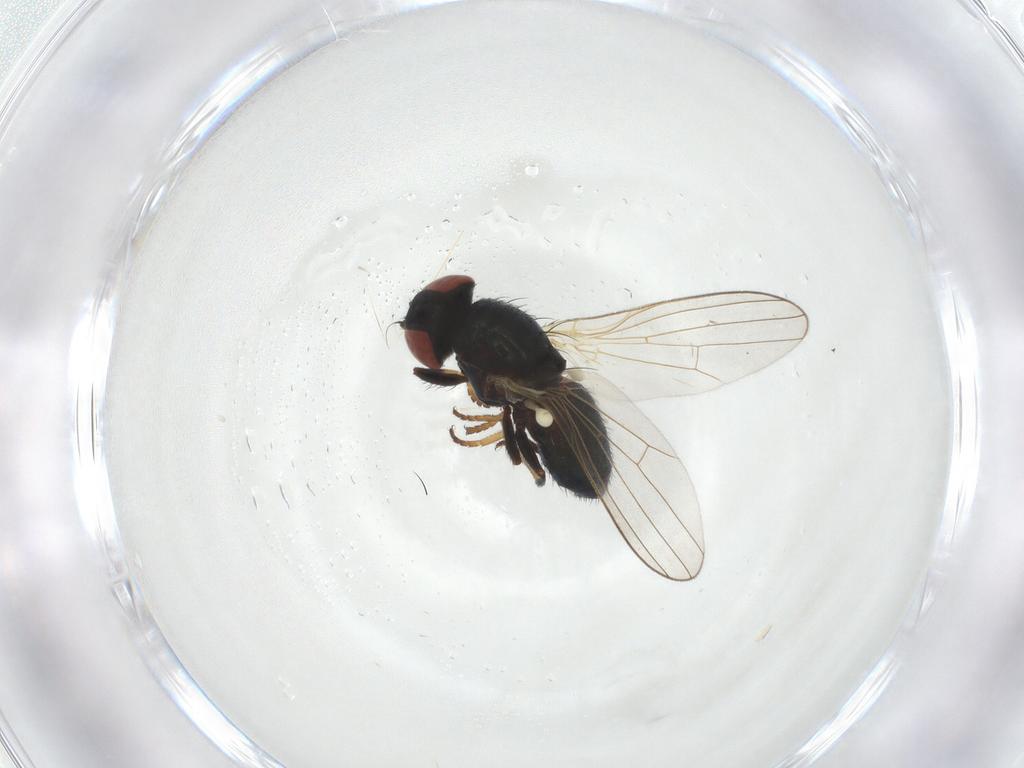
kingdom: Animalia
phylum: Arthropoda
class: Insecta
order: Diptera
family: Chamaemyiidae
